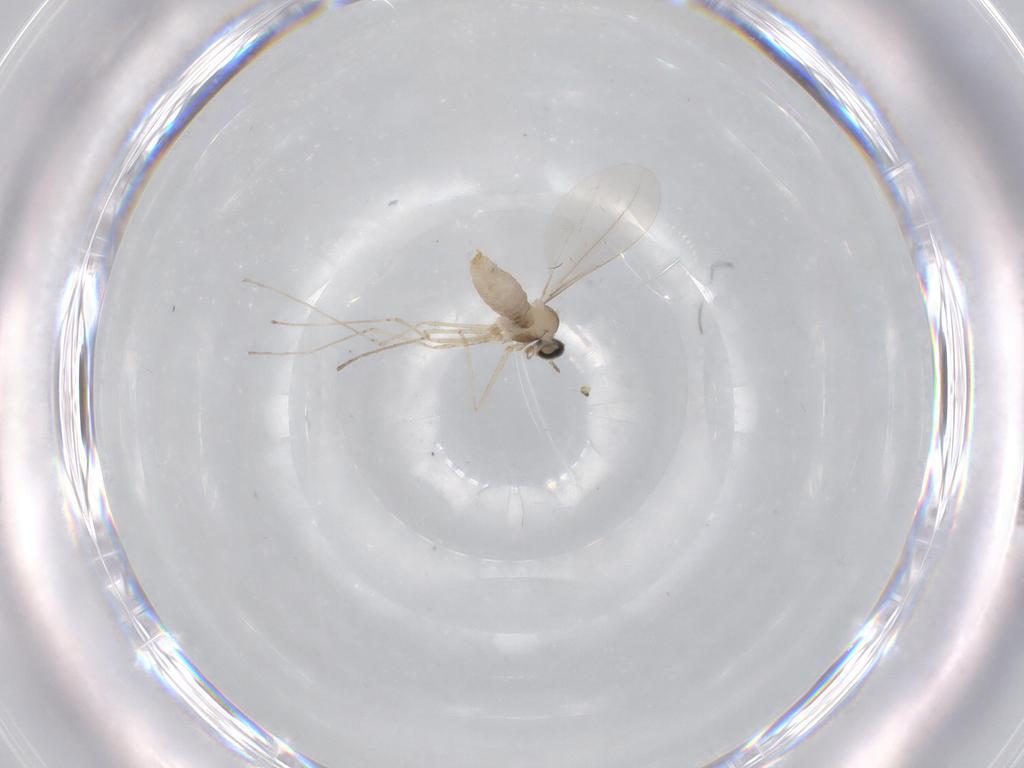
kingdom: Animalia
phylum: Arthropoda
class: Insecta
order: Diptera
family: Cecidomyiidae
